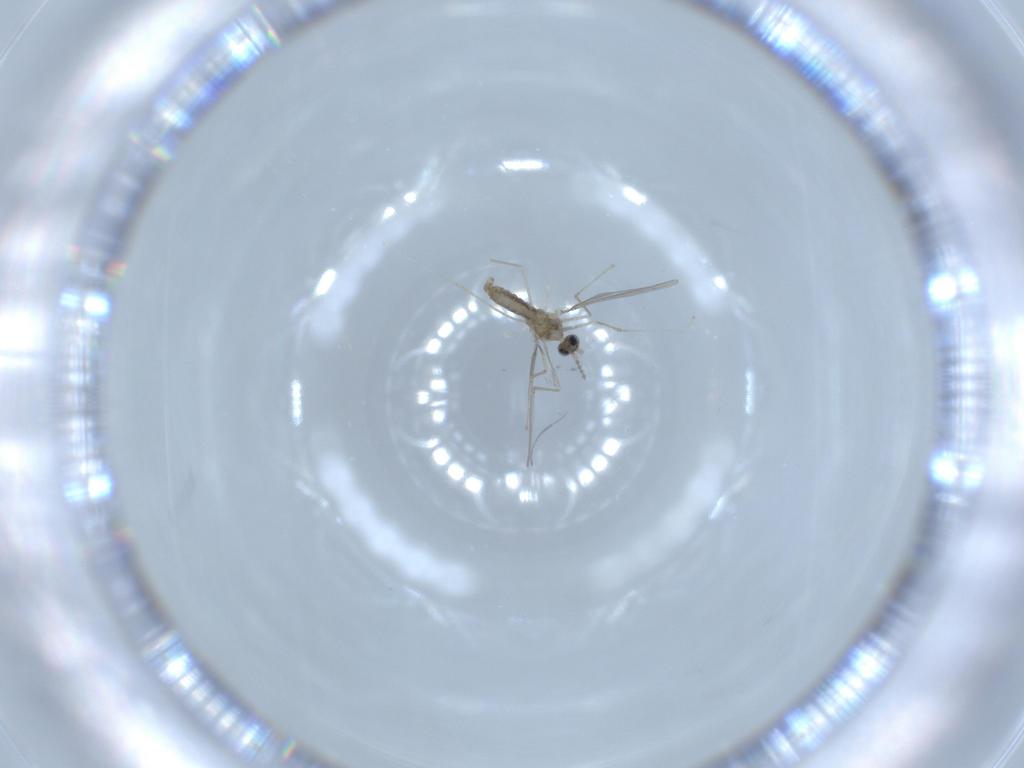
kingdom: Animalia
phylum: Arthropoda
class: Insecta
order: Diptera
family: Cecidomyiidae
